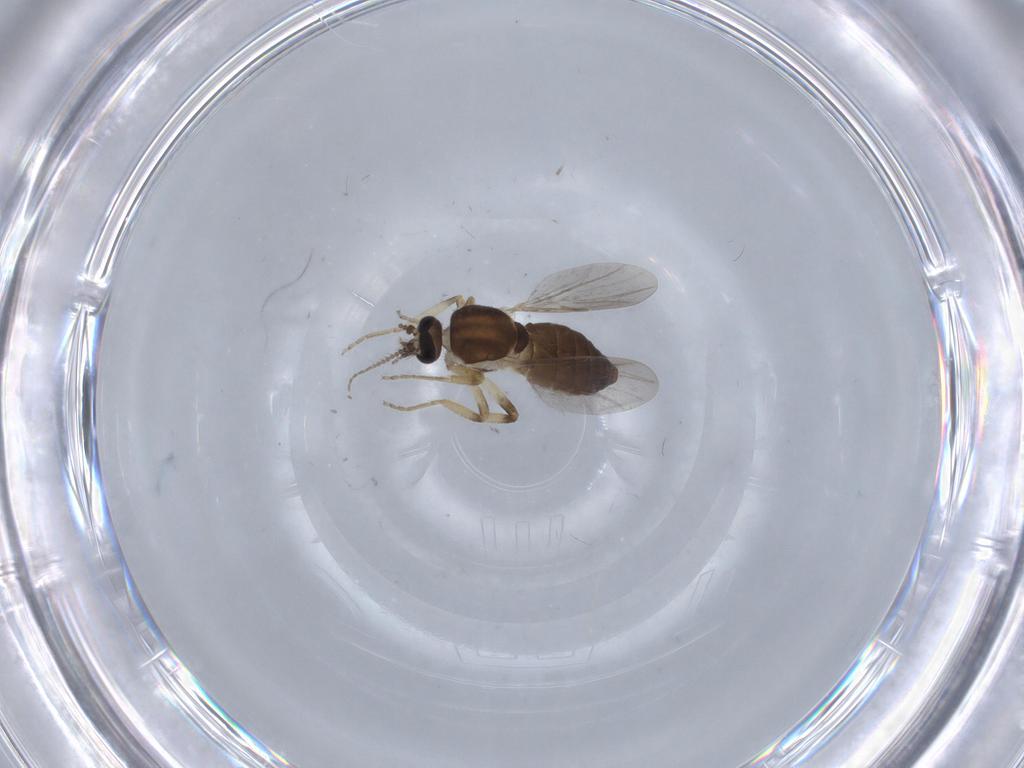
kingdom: Animalia
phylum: Arthropoda
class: Insecta
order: Diptera
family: Ceratopogonidae
